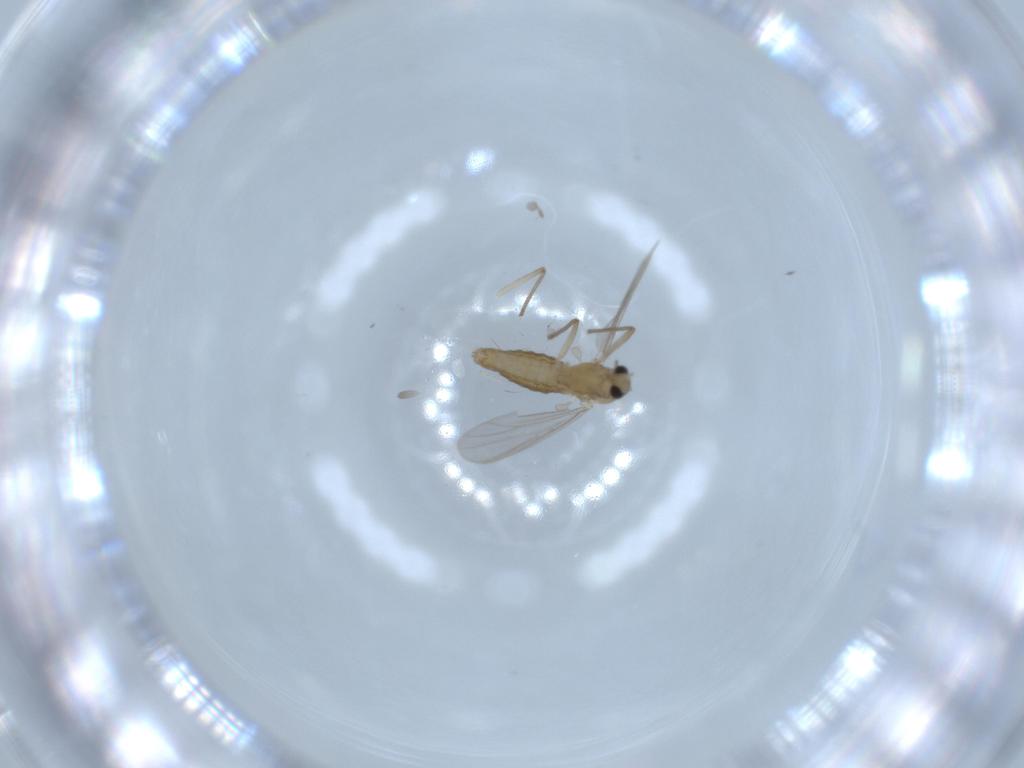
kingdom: Animalia
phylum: Arthropoda
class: Insecta
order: Diptera
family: Chironomidae
